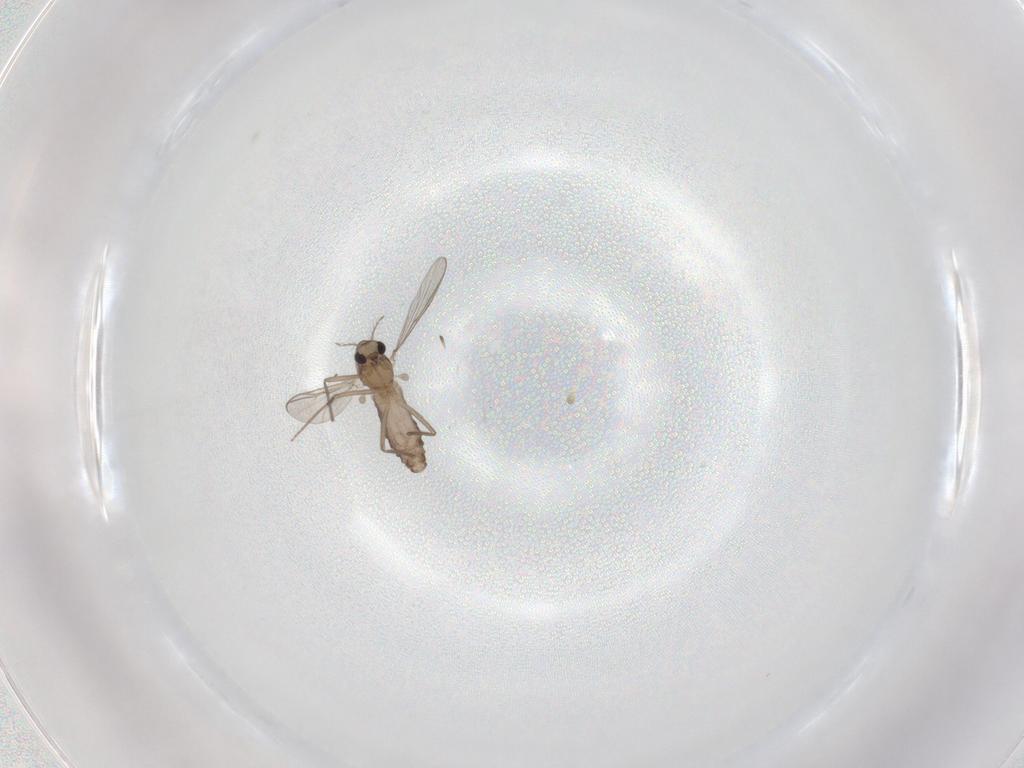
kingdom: Animalia
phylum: Arthropoda
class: Insecta
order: Diptera
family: Chironomidae
